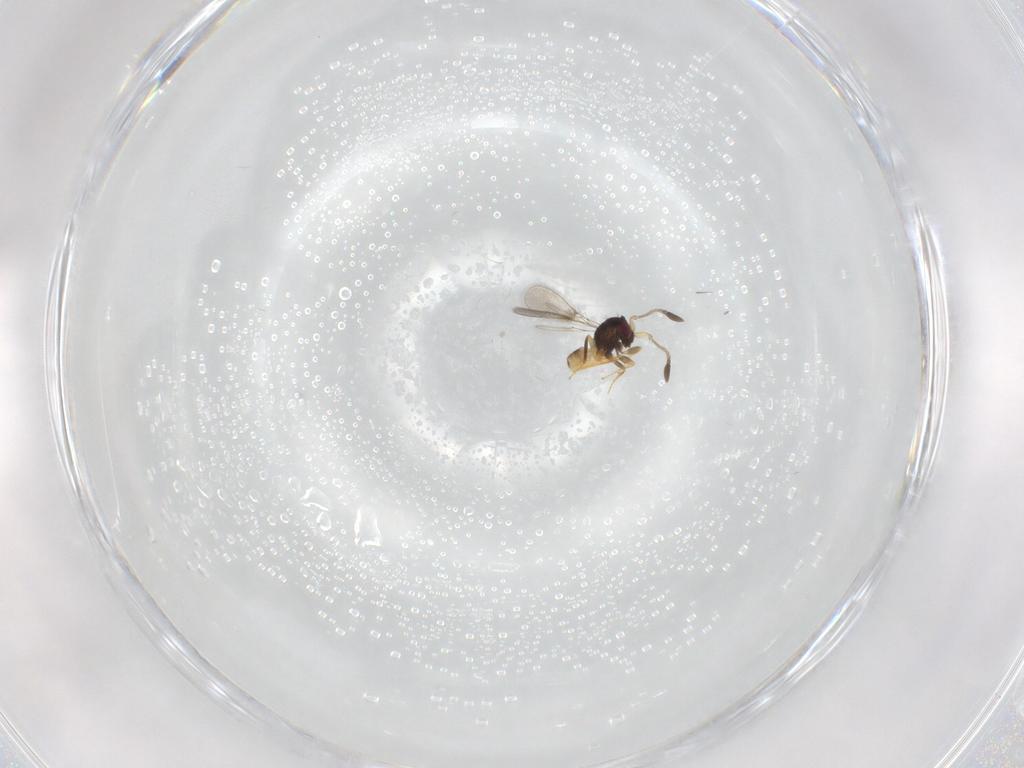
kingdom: Animalia
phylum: Arthropoda
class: Insecta
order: Hymenoptera
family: Mymaridae
